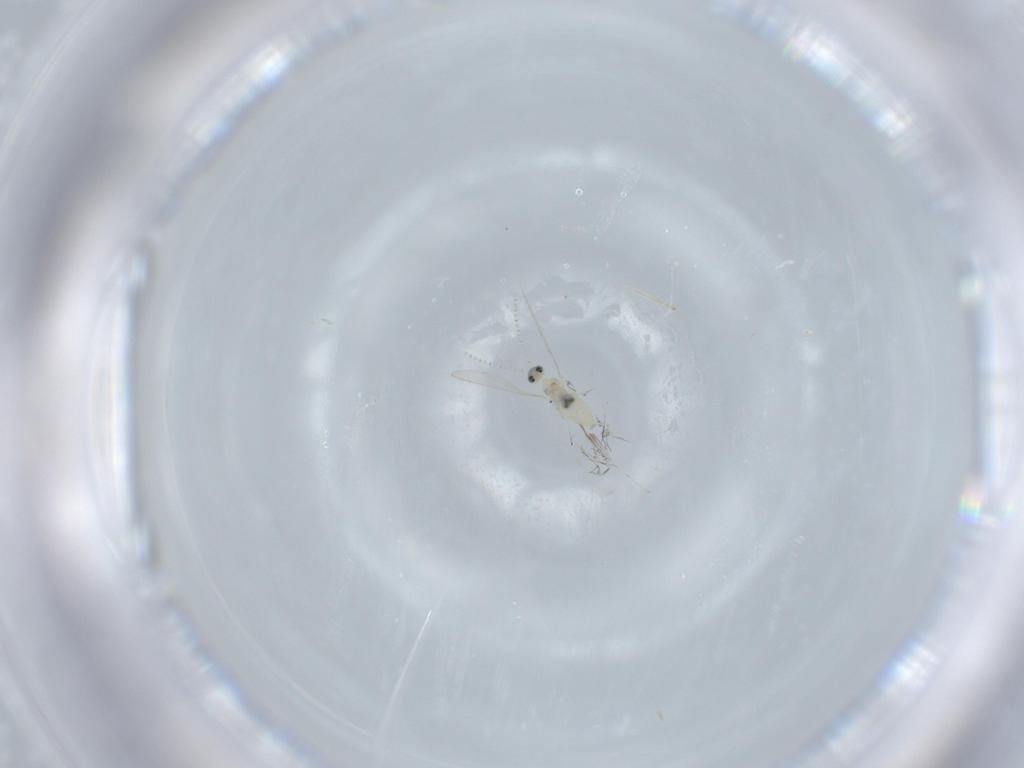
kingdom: Animalia
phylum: Arthropoda
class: Insecta
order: Diptera
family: Cecidomyiidae
